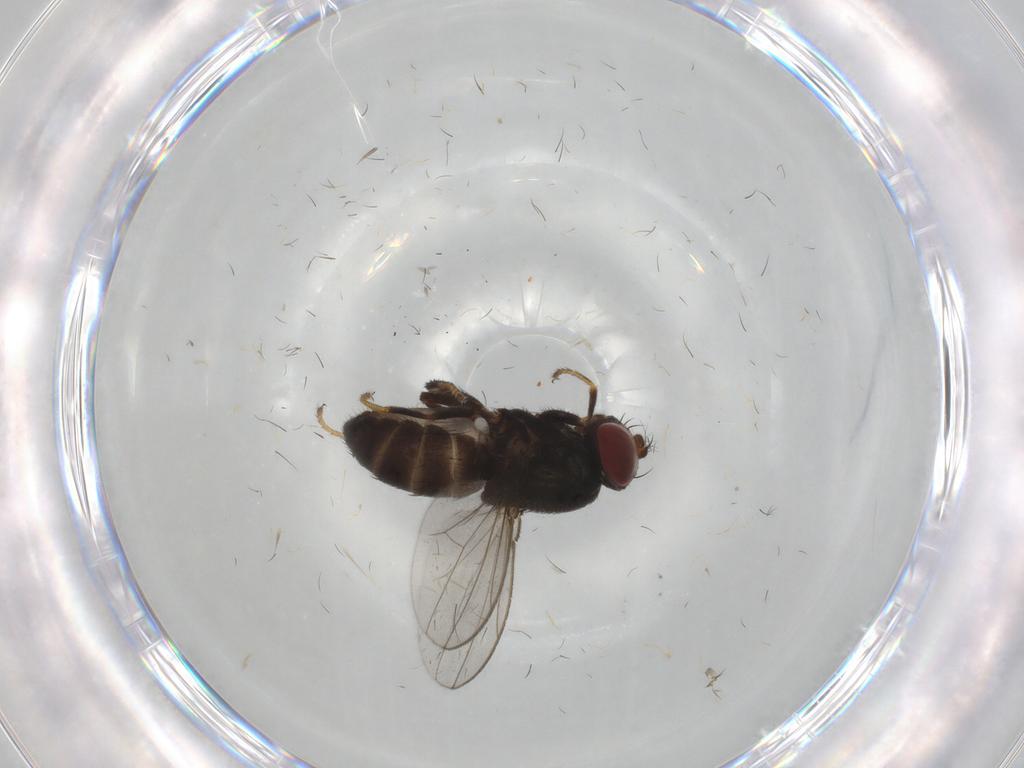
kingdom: Animalia
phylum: Arthropoda
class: Insecta
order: Diptera
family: Ephydridae
